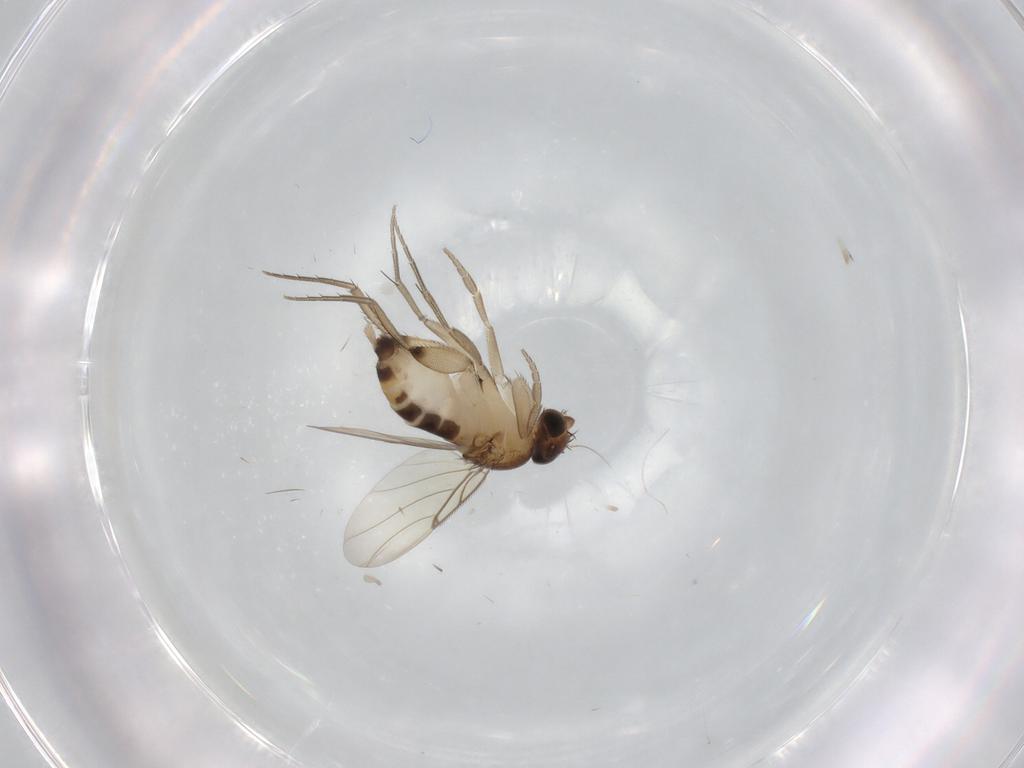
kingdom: Animalia
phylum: Arthropoda
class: Insecta
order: Diptera
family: Phoridae
